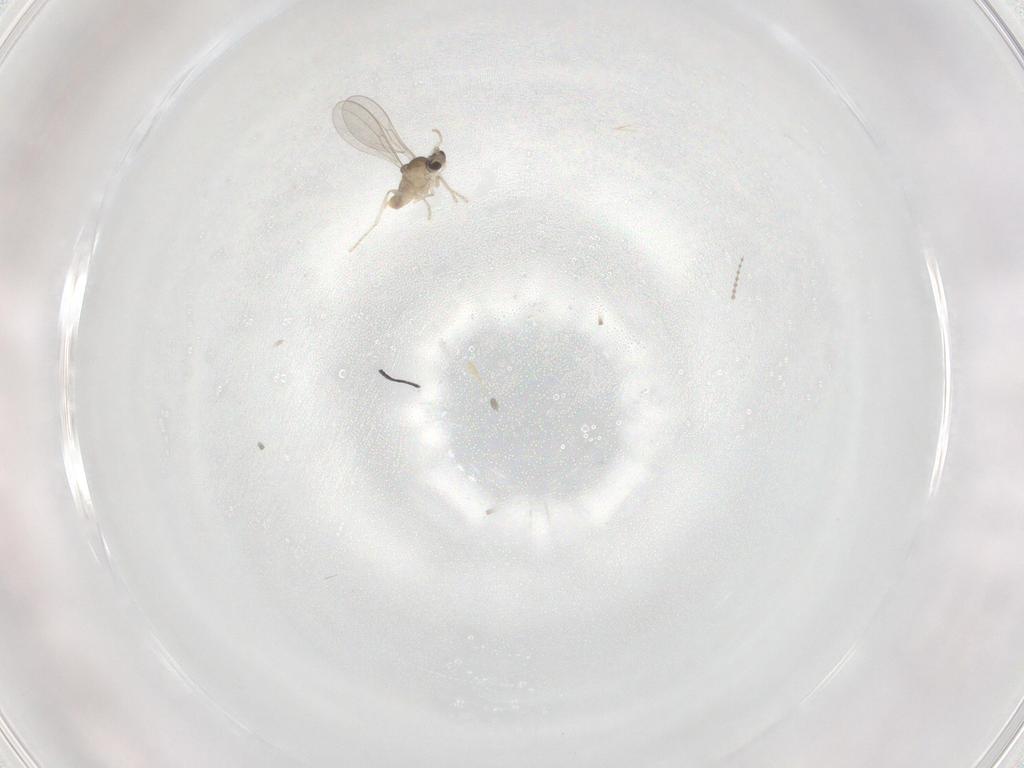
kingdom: Animalia
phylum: Arthropoda
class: Insecta
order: Diptera
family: Cecidomyiidae
